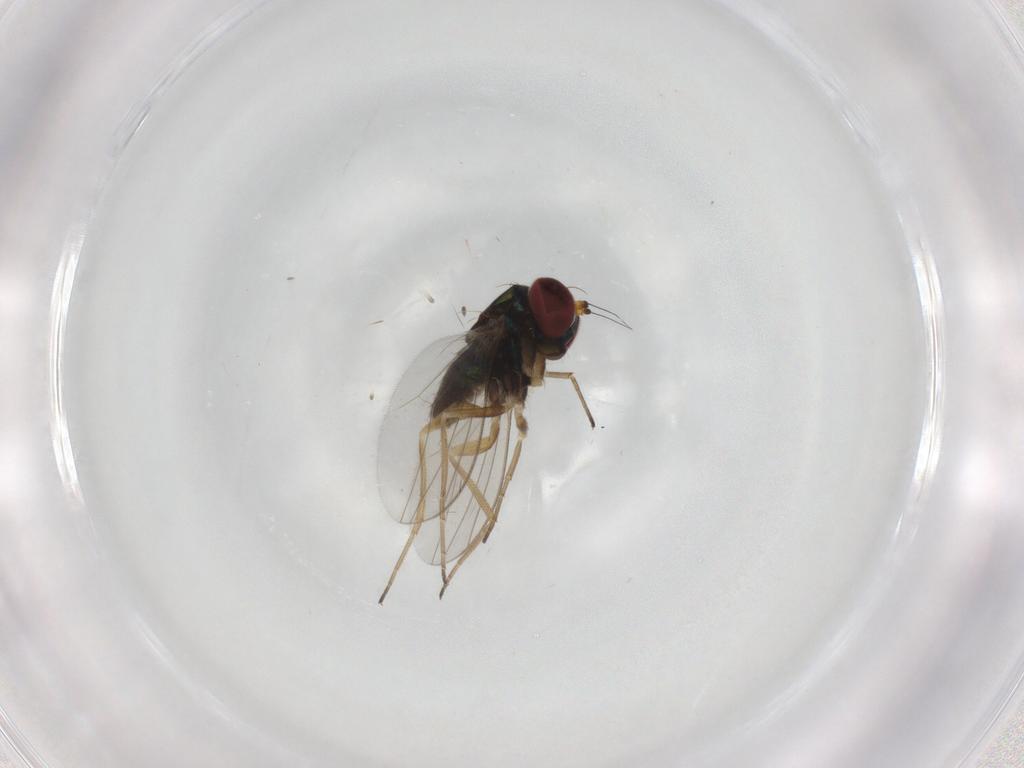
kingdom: Animalia
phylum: Arthropoda
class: Insecta
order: Diptera
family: Dolichopodidae
